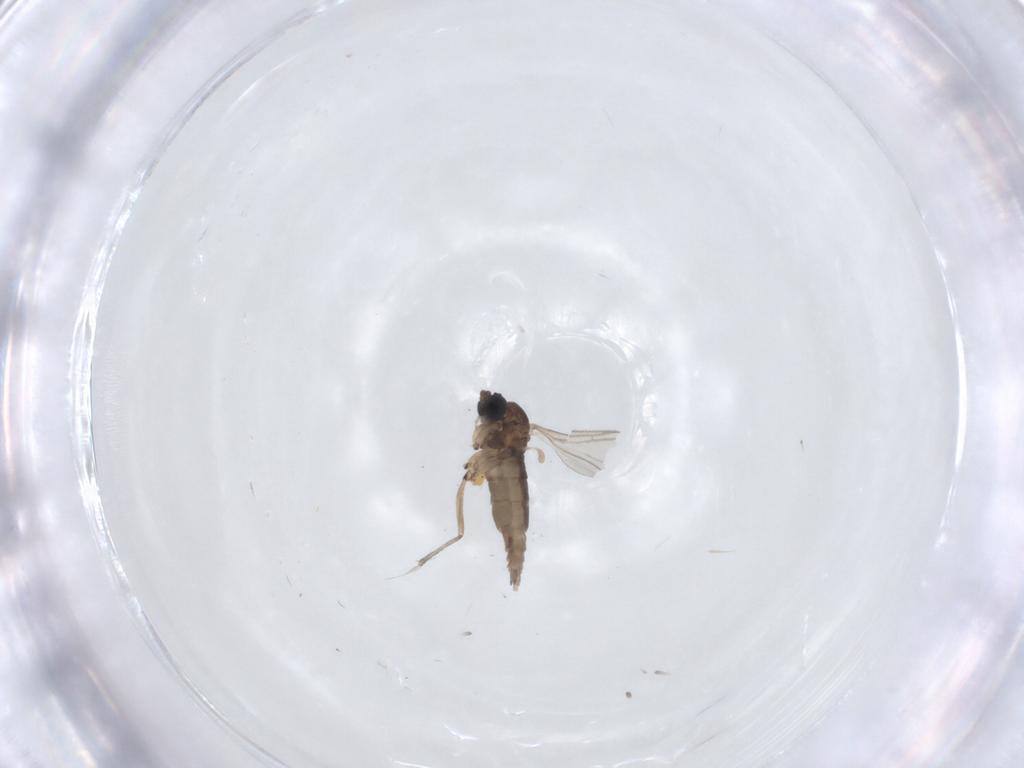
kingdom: Animalia
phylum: Arthropoda
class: Insecta
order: Diptera
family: Sciaridae
